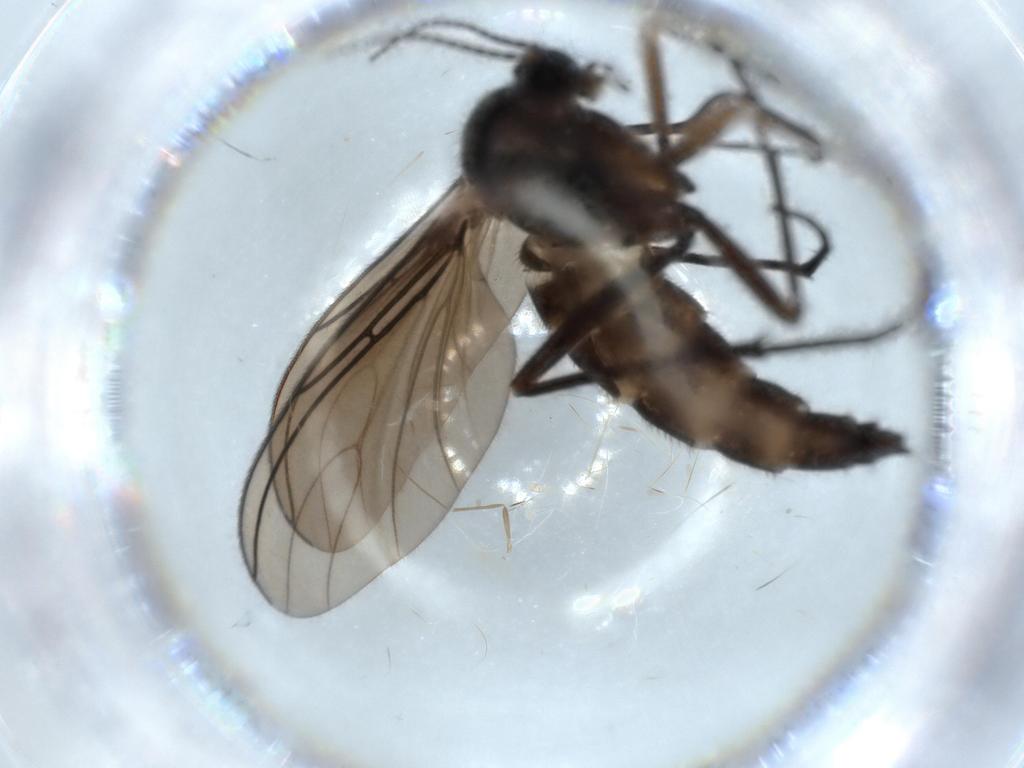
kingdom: Animalia
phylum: Arthropoda
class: Insecta
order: Diptera
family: Sciaridae
